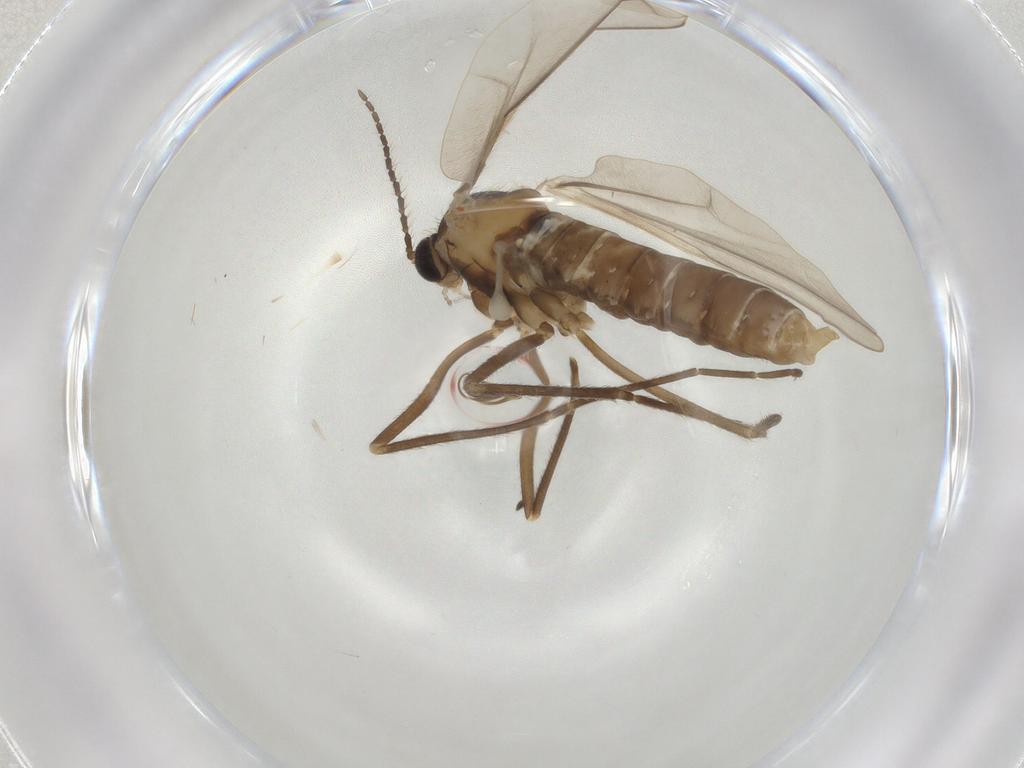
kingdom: Animalia
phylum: Arthropoda
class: Insecta
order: Diptera
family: Cecidomyiidae
